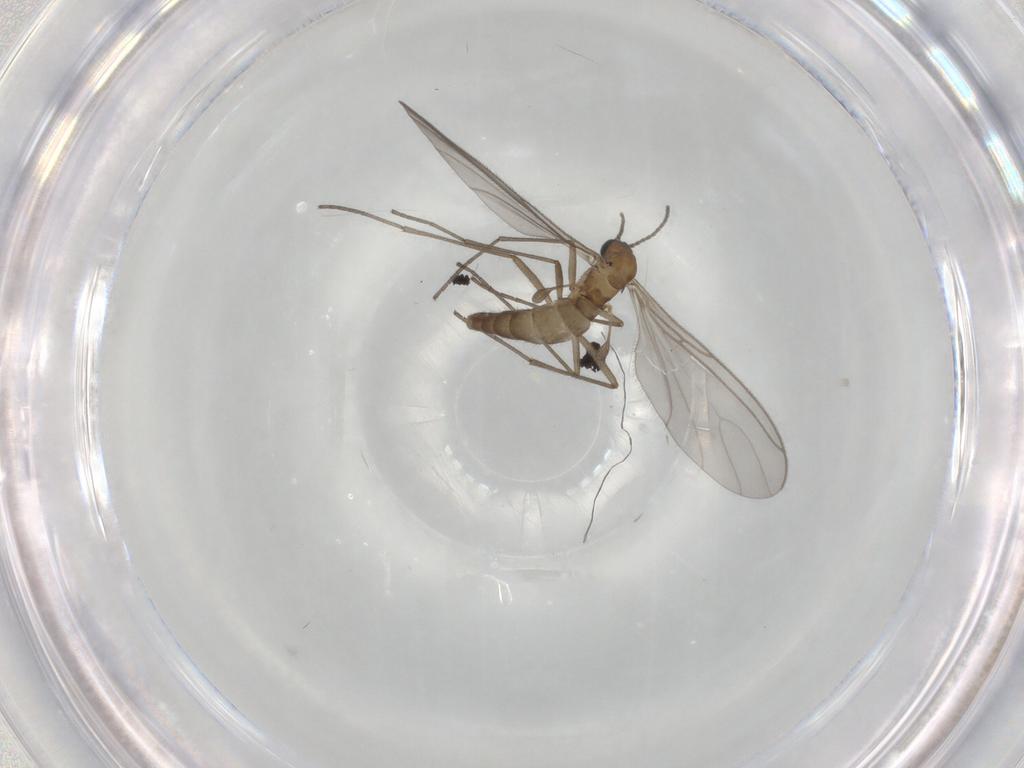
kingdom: Animalia
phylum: Arthropoda
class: Insecta
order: Diptera
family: Sciaridae
